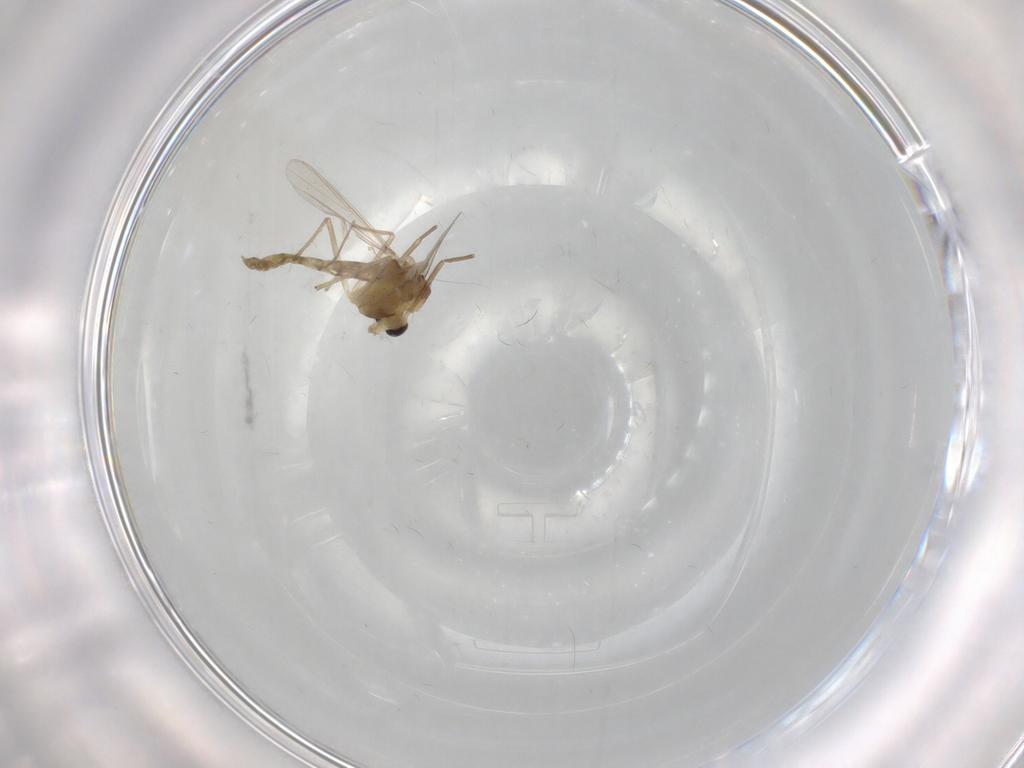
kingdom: Animalia
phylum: Arthropoda
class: Insecta
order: Diptera
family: Chironomidae
